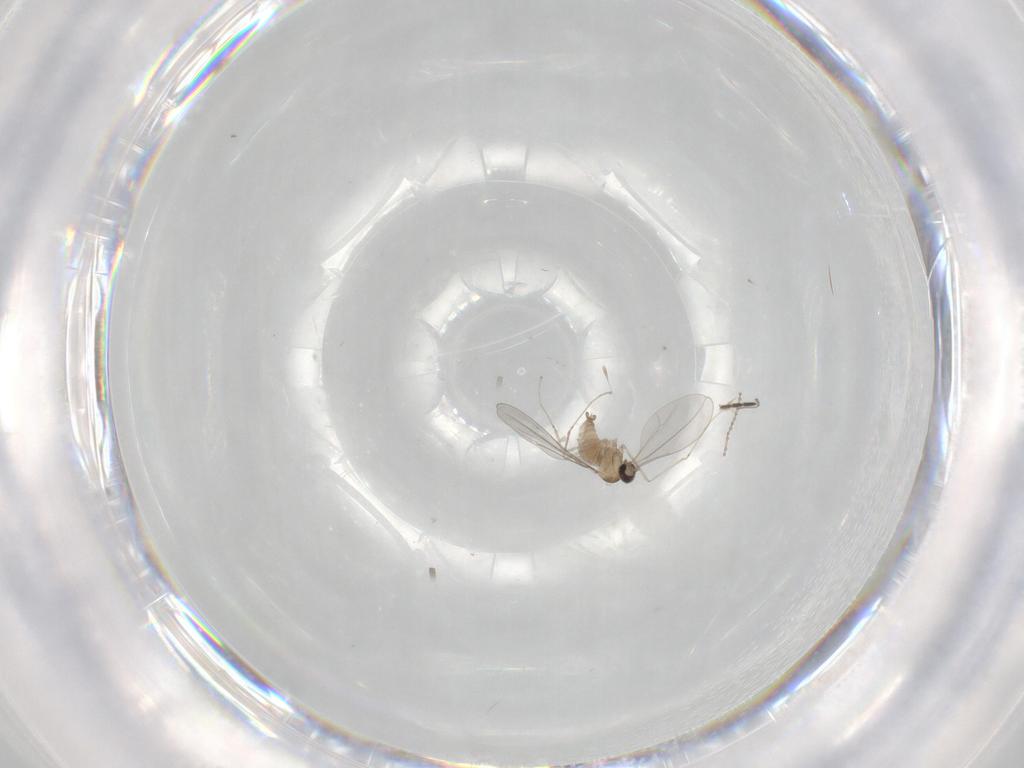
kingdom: Animalia
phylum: Arthropoda
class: Insecta
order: Diptera
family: Cecidomyiidae
